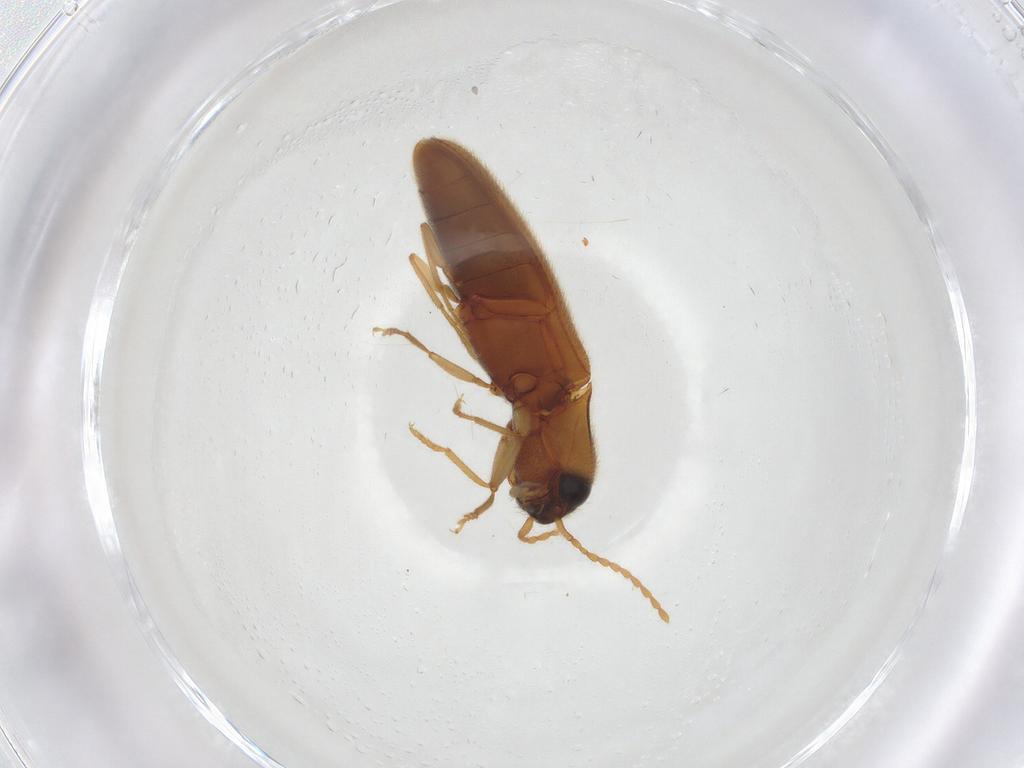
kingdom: Animalia
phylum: Arthropoda
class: Insecta
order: Coleoptera
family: Elateridae
